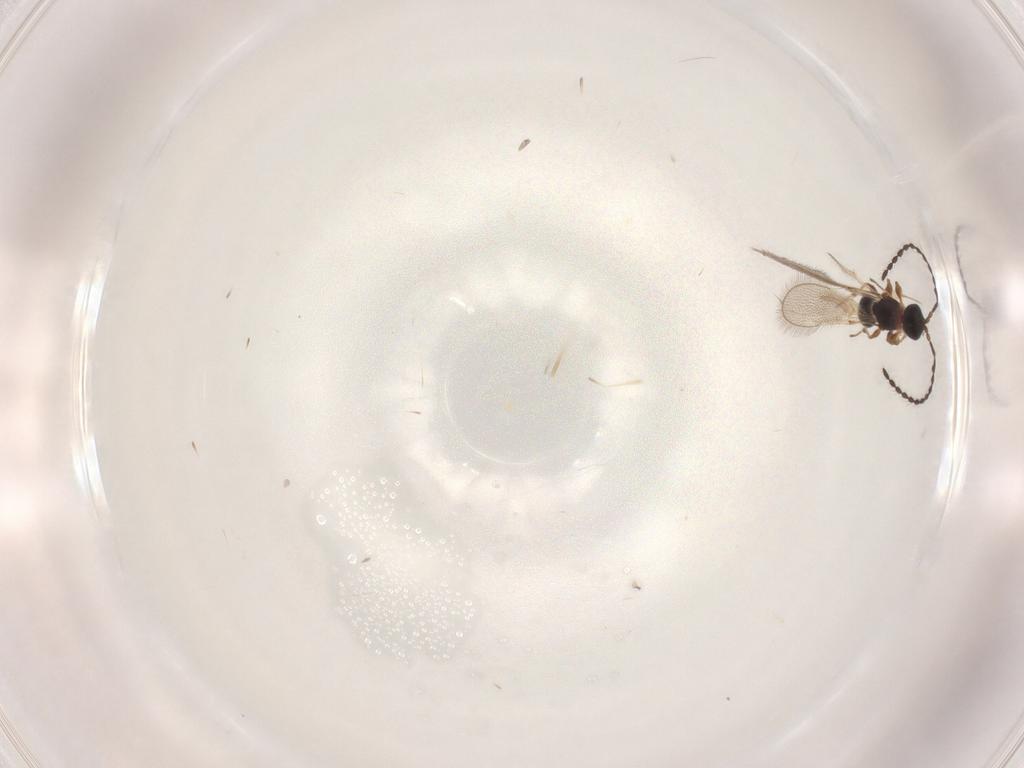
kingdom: Animalia
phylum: Arthropoda
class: Insecta
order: Hymenoptera
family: Diapriidae
